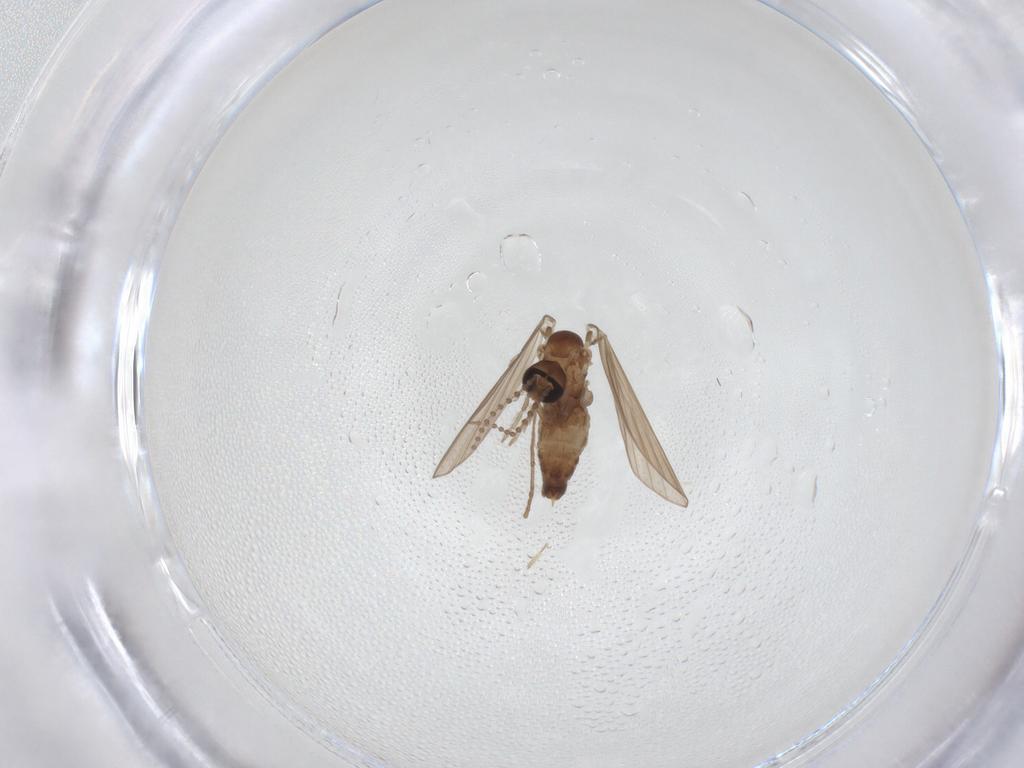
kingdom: Animalia
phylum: Arthropoda
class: Insecta
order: Diptera
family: Psychodidae
